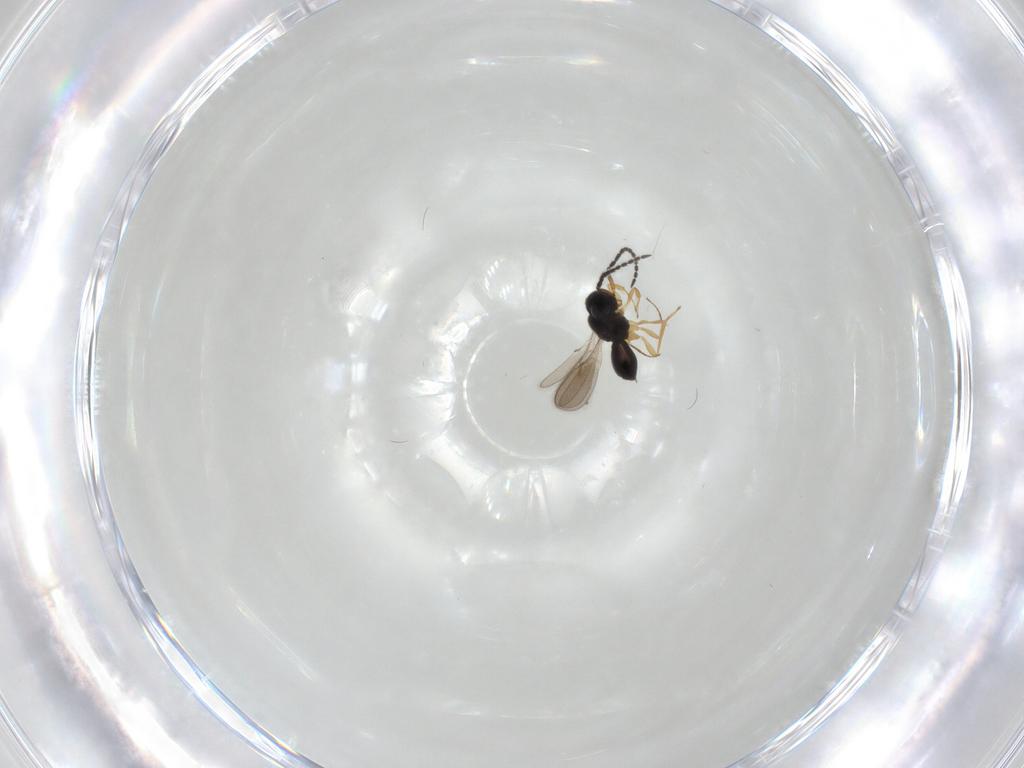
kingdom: Animalia
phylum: Arthropoda
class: Insecta
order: Hymenoptera
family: Scelionidae
